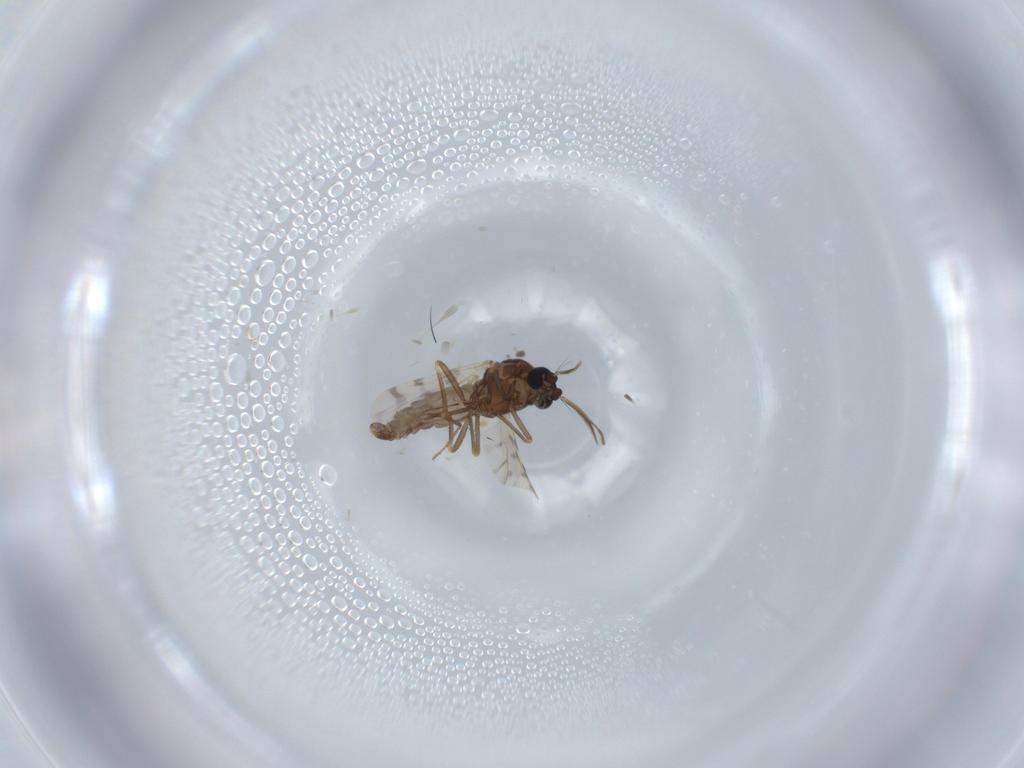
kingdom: Animalia
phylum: Arthropoda
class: Insecta
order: Diptera
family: Ceratopogonidae
